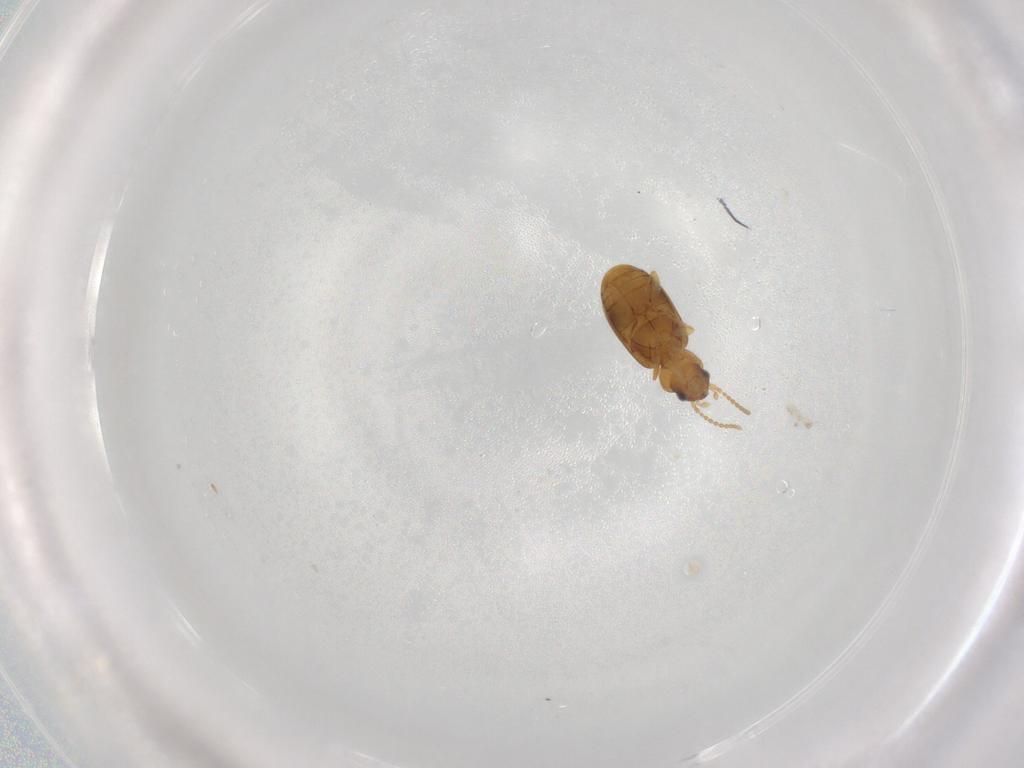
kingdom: Animalia
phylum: Arthropoda
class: Insecta
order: Coleoptera
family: Carabidae
